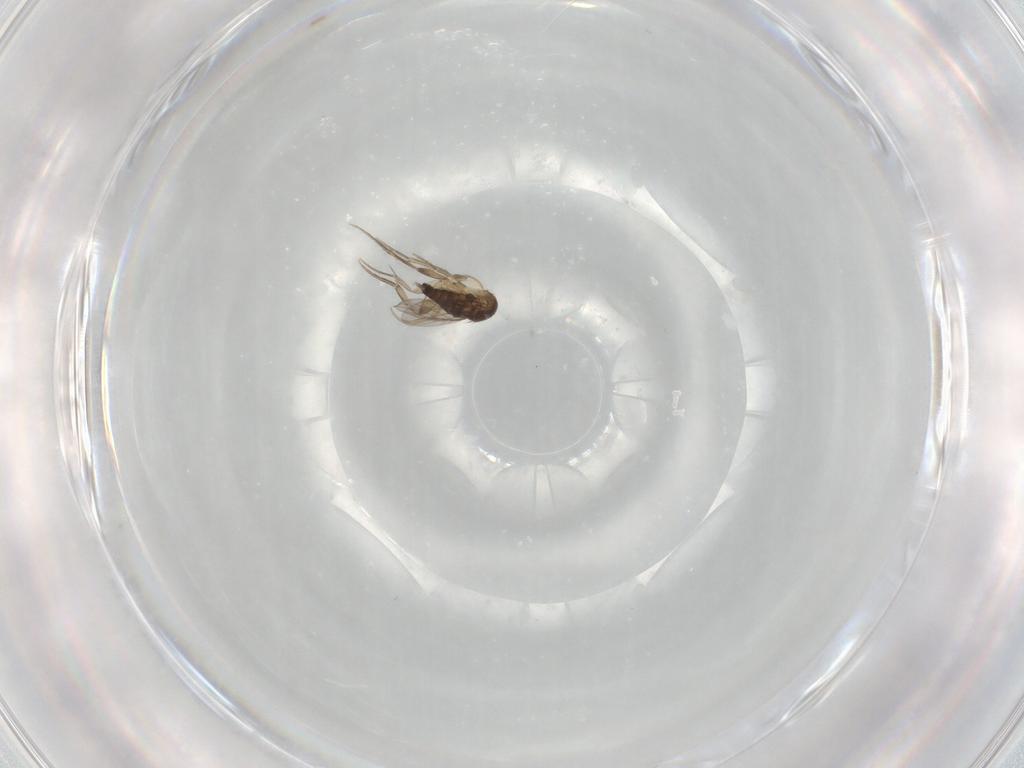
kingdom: Animalia
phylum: Arthropoda
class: Insecta
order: Diptera
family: Phoridae
